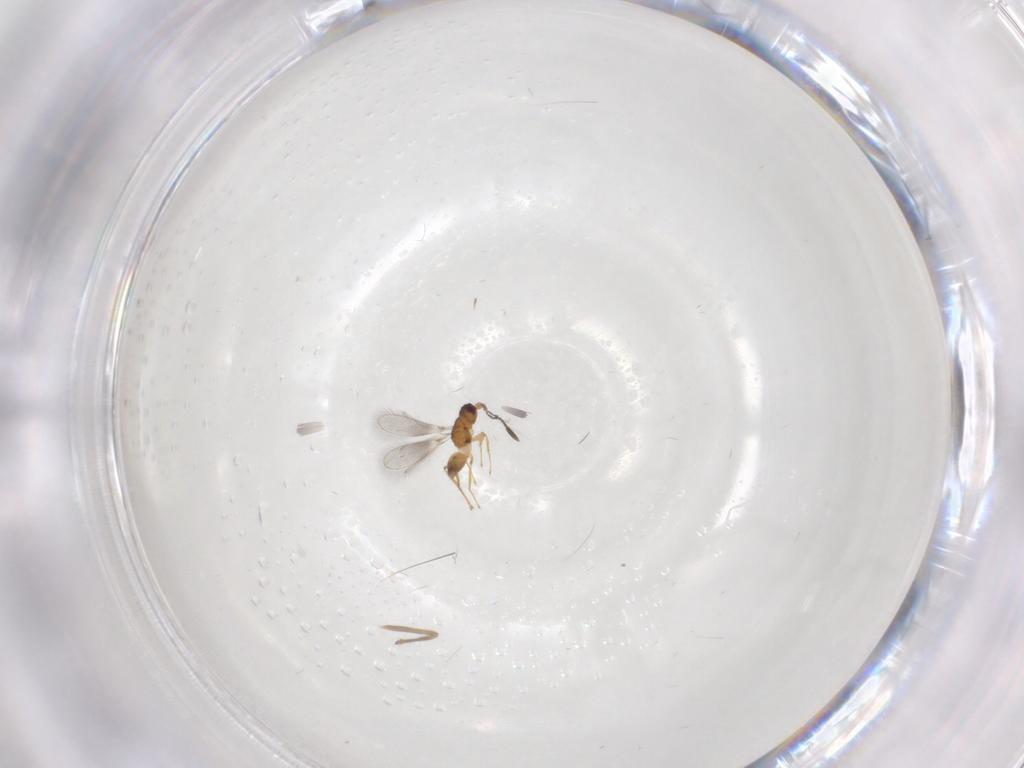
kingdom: Animalia
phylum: Arthropoda
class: Insecta
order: Hymenoptera
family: Mymaridae
